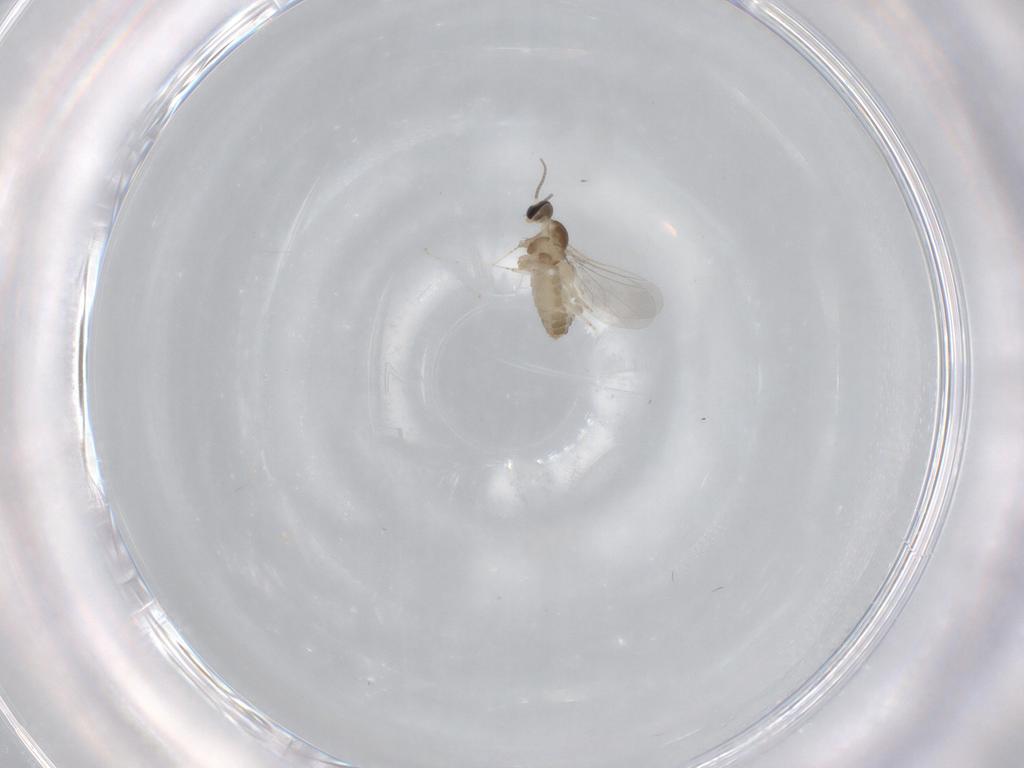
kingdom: Animalia
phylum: Arthropoda
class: Insecta
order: Diptera
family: Cecidomyiidae
